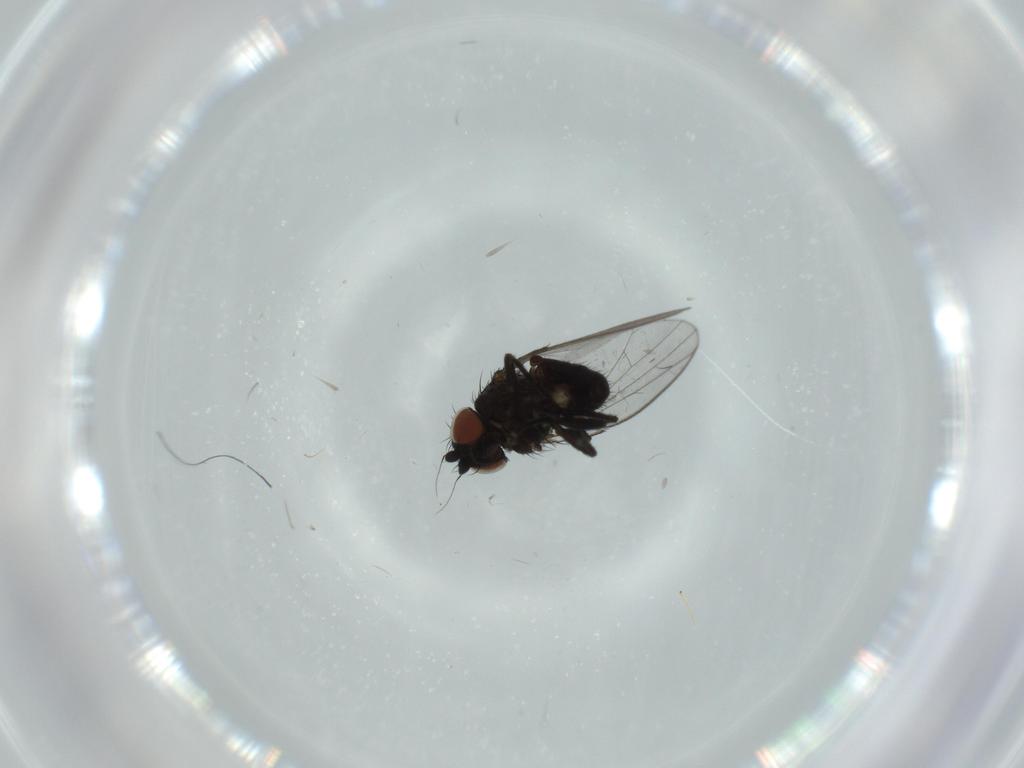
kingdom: Animalia
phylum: Arthropoda
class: Insecta
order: Diptera
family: Milichiidae
